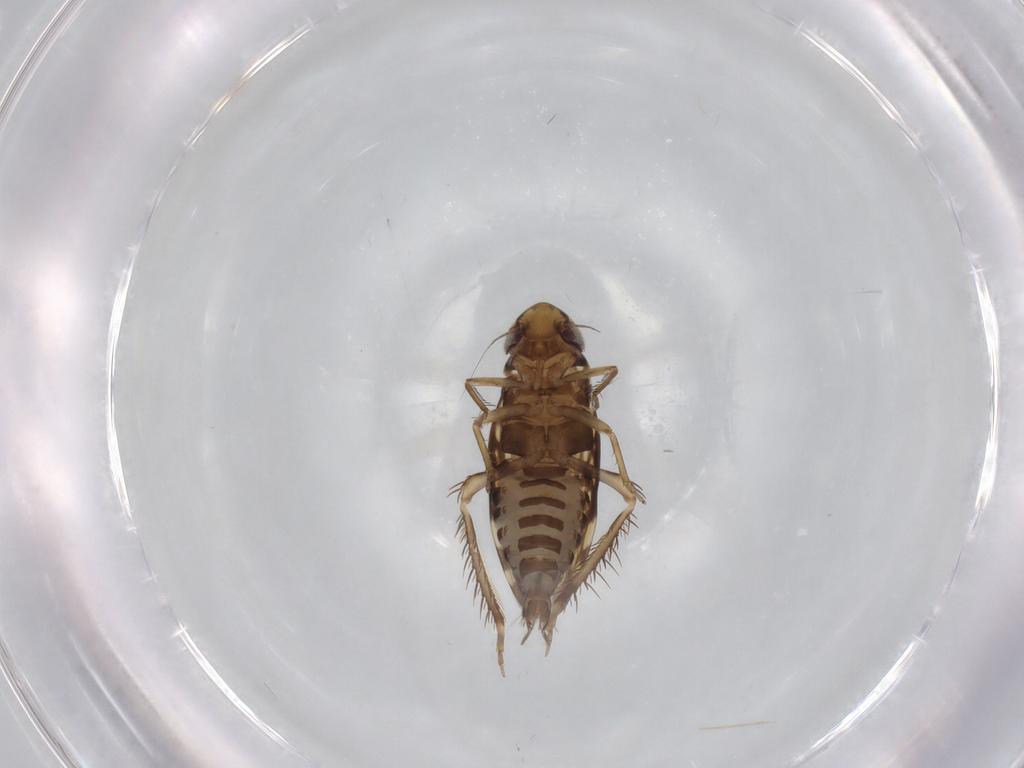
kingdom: Animalia
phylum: Arthropoda
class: Insecta
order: Hemiptera
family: Cicadellidae
